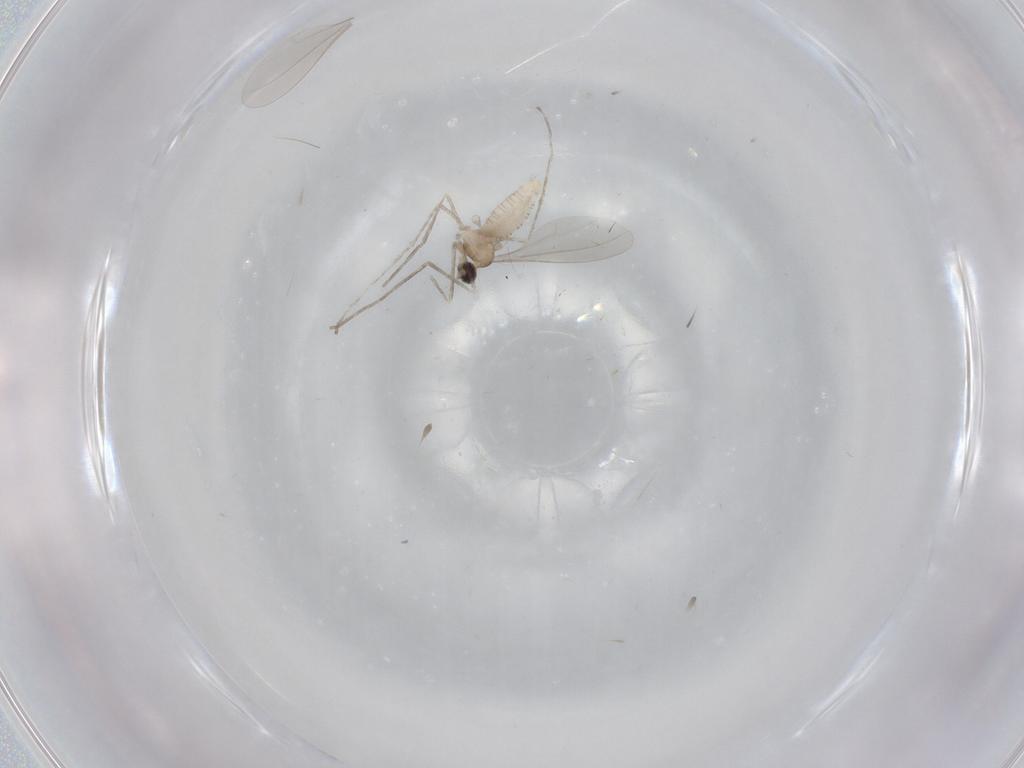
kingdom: Animalia
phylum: Arthropoda
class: Insecta
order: Diptera
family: Cecidomyiidae
